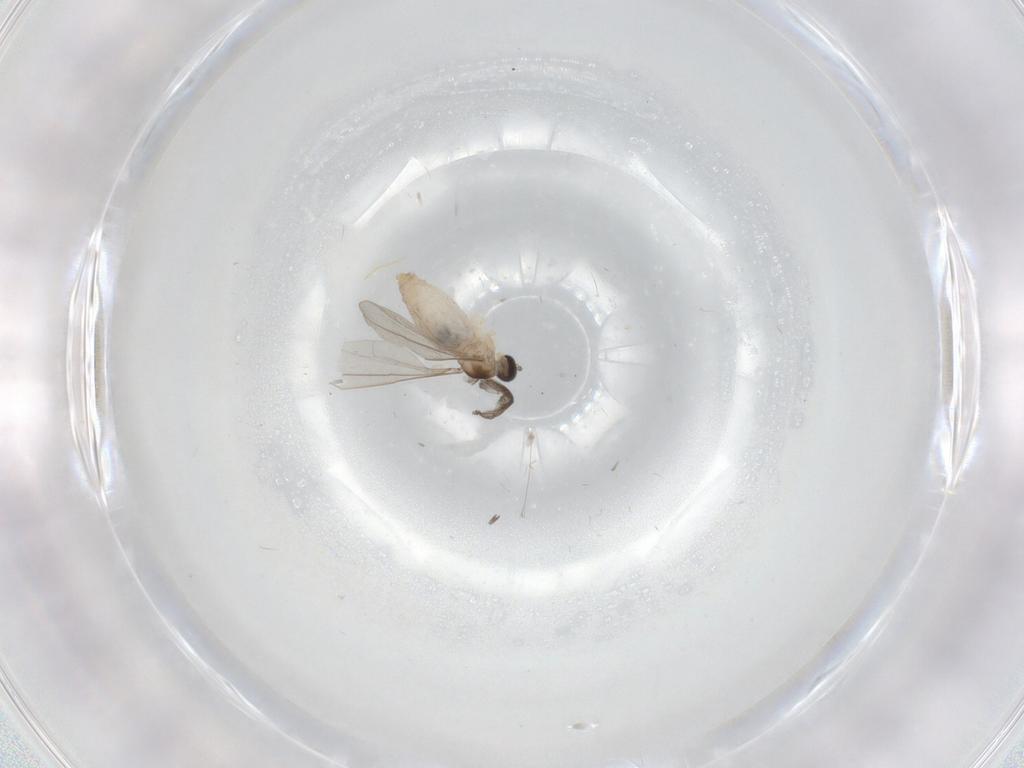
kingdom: Animalia
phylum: Arthropoda
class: Insecta
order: Diptera
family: Cecidomyiidae
